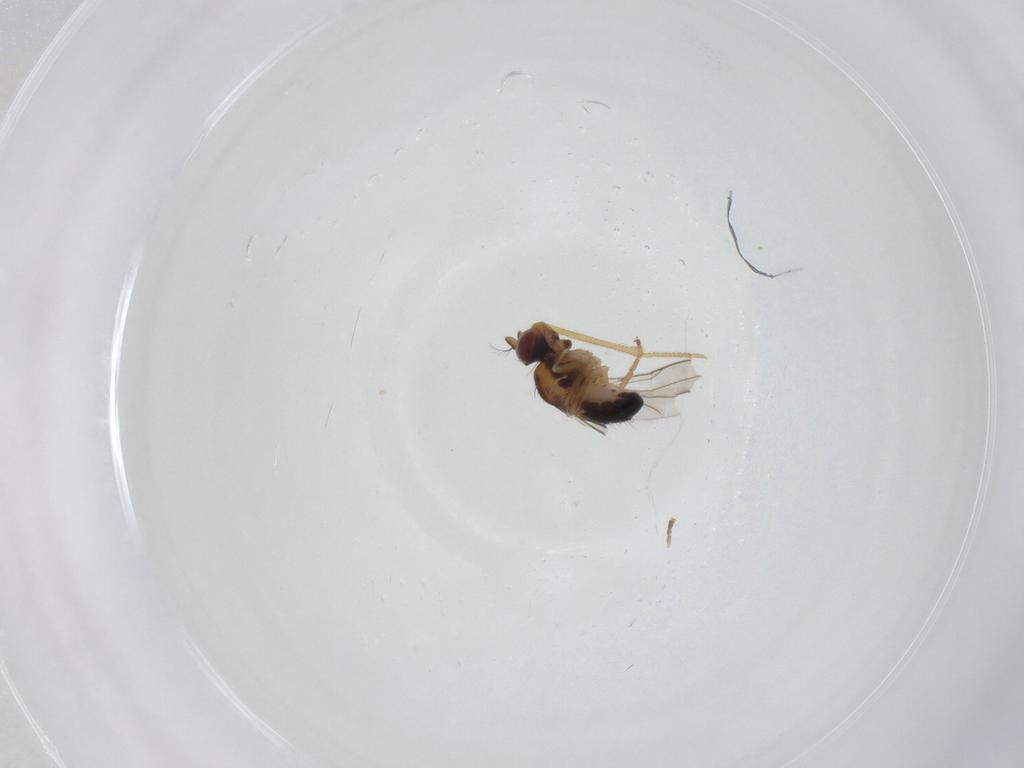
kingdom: Animalia
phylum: Arthropoda
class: Insecta
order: Diptera
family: Ephydridae
